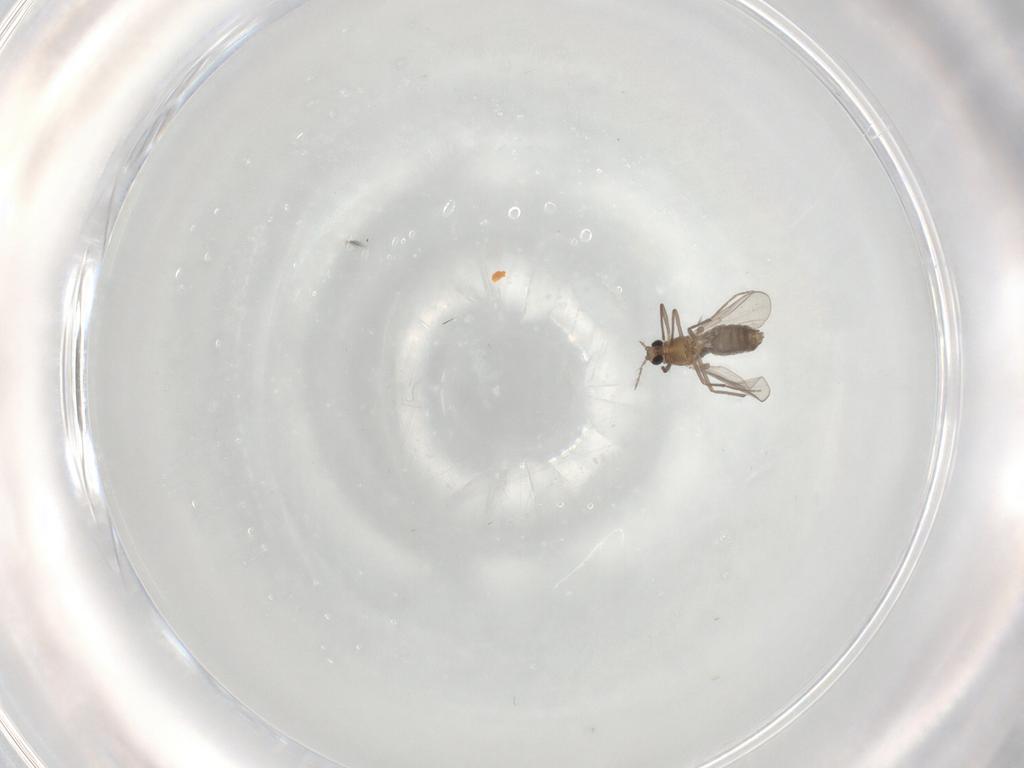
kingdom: Animalia
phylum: Arthropoda
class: Insecta
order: Diptera
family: Chironomidae
